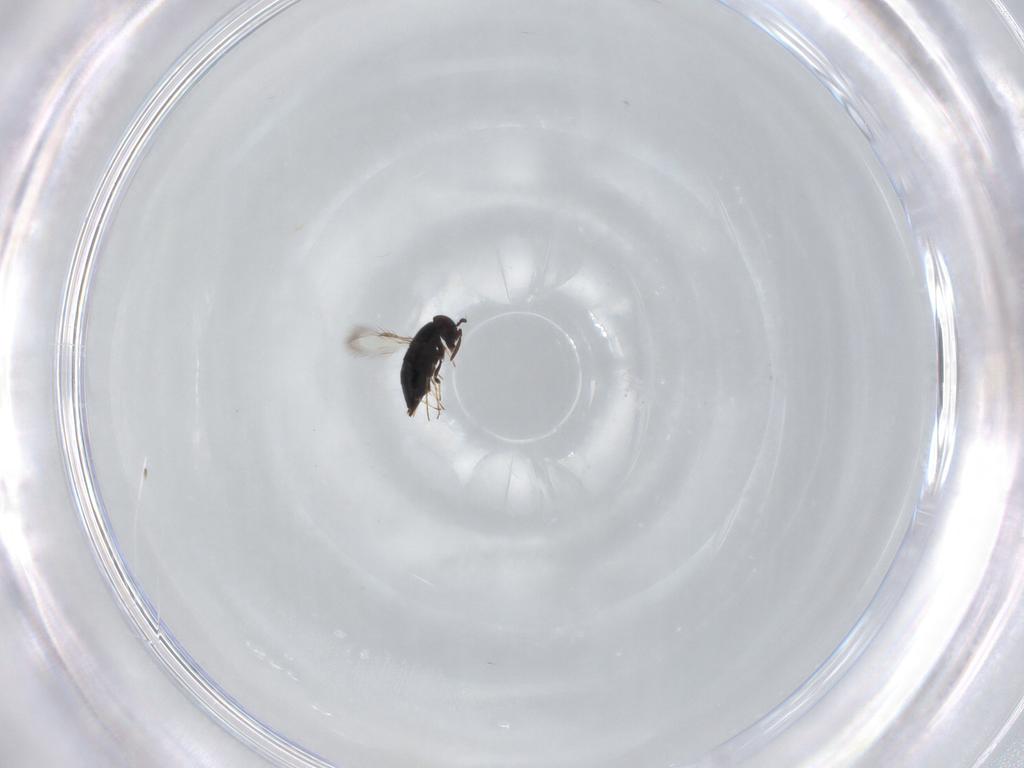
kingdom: Animalia
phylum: Arthropoda
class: Insecta
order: Hymenoptera
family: Signiphoridae
